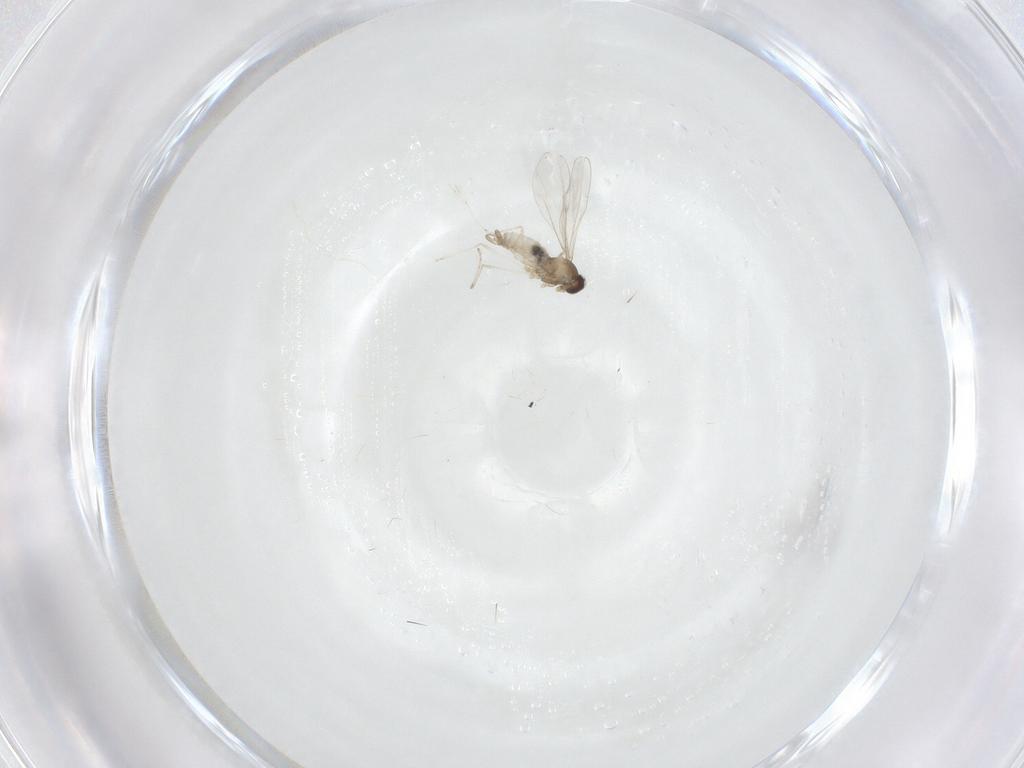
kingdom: Animalia
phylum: Arthropoda
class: Insecta
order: Diptera
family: Cecidomyiidae
